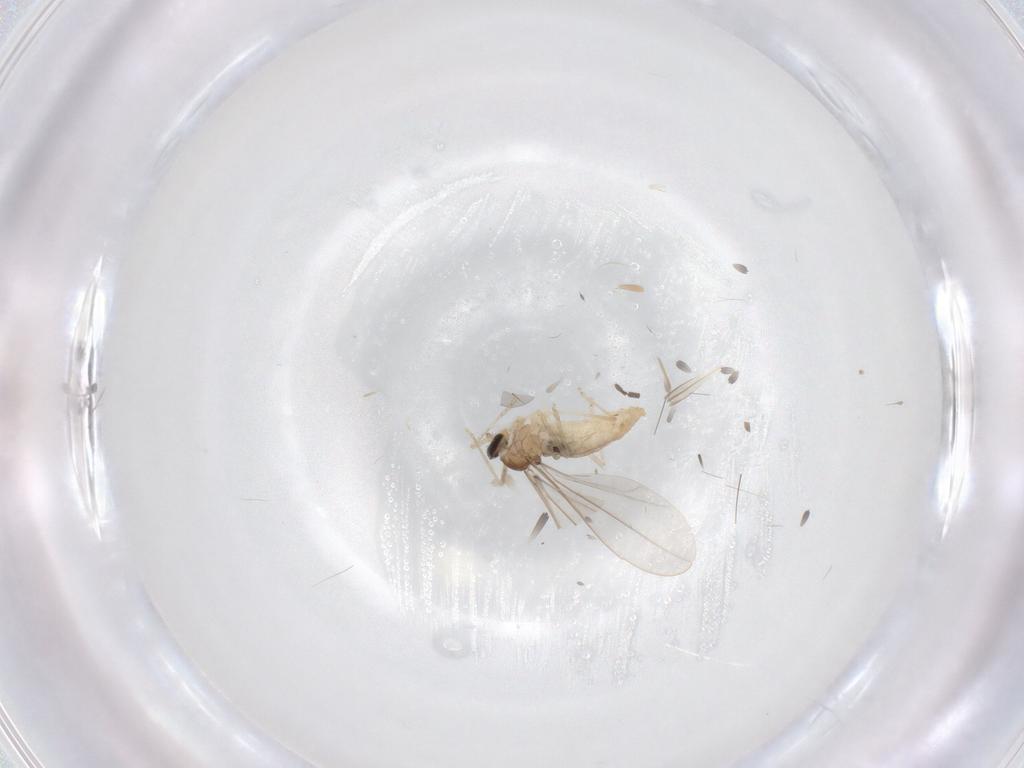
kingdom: Animalia
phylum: Arthropoda
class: Insecta
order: Diptera
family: Cecidomyiidae
